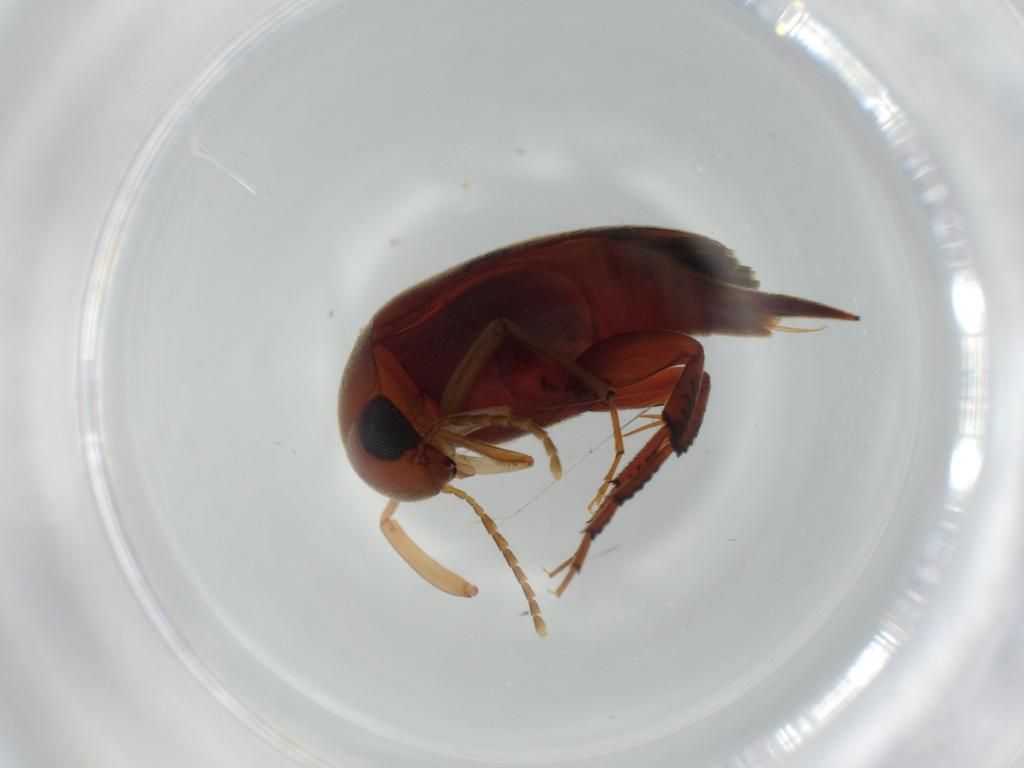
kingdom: Animalia
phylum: Arthropoda
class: Insecta
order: Coleoptera
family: Mordellidae
